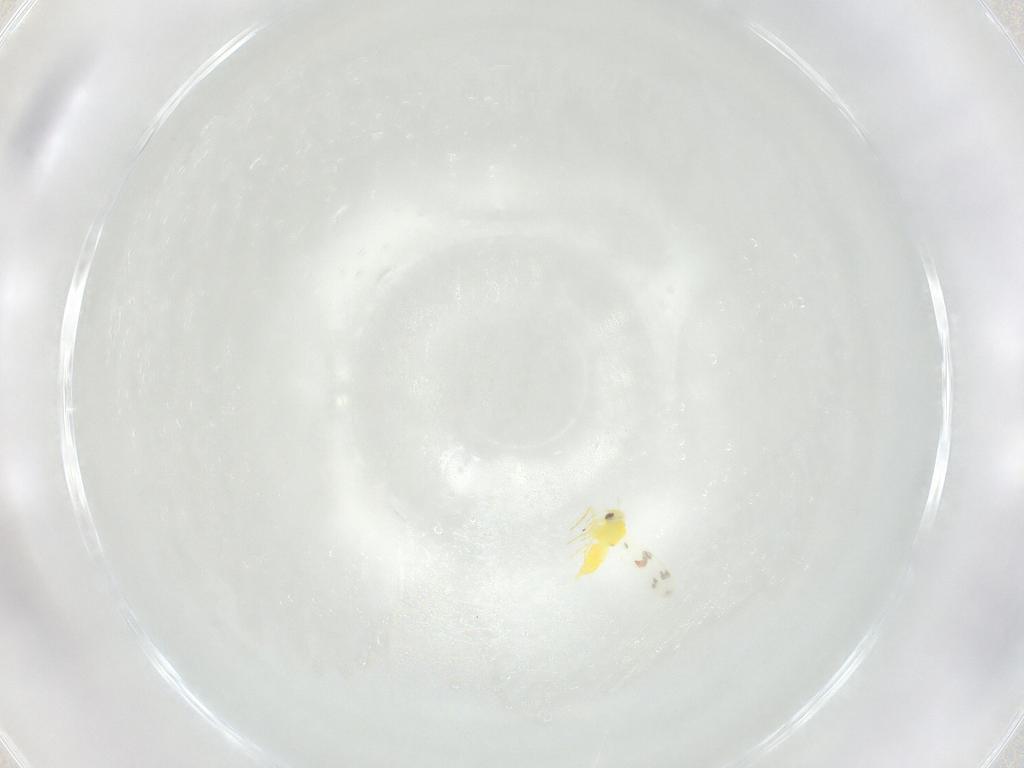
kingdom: Animalia
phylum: Arthropoda
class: Insecta
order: Hemiptera
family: Aleyrodidae
